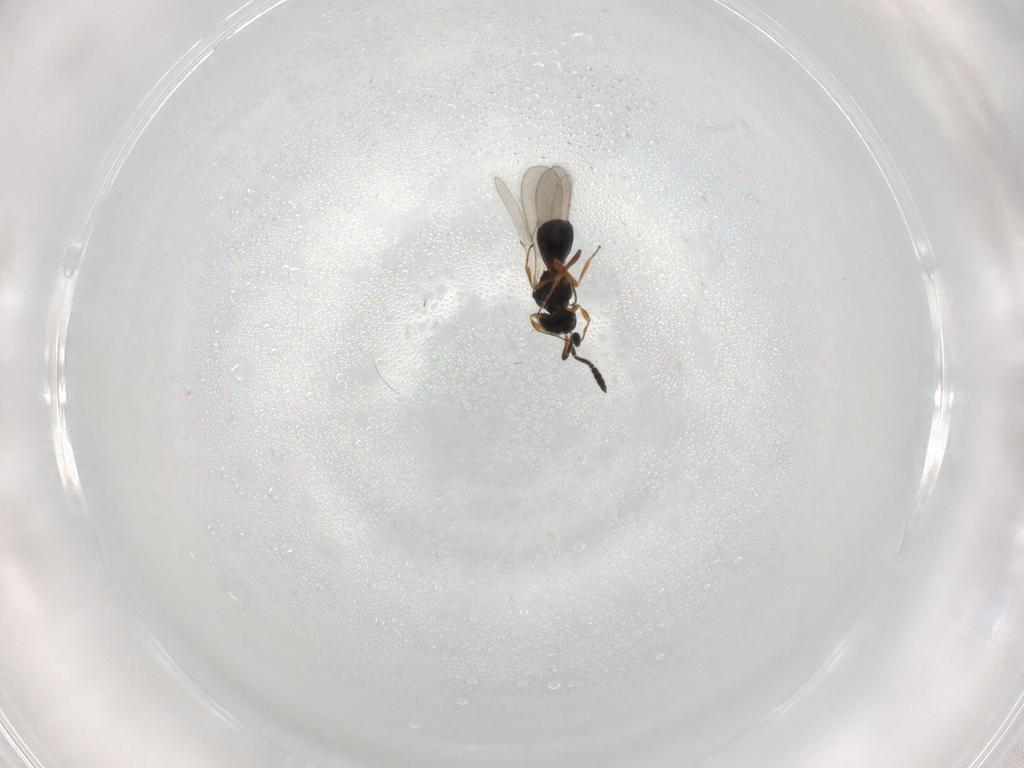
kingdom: Animalia
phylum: Arthropoda
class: Insecta
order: Hymenoptera
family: Scelionidae
